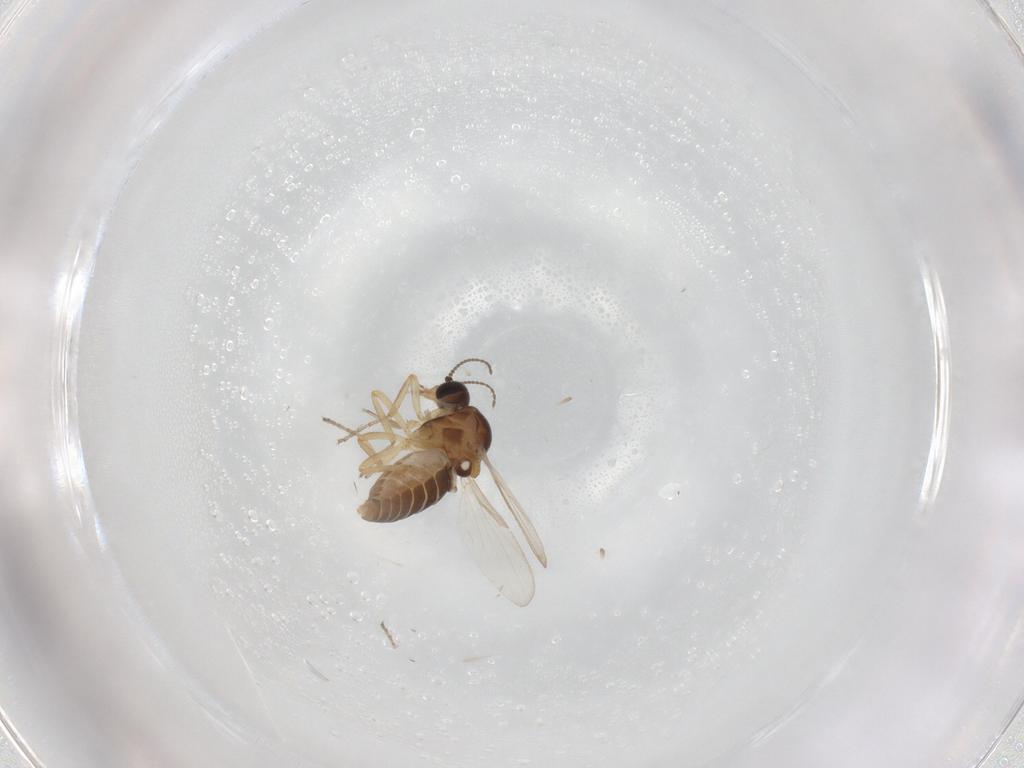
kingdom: Animalia
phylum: Arthropoda
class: Insecta
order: Diptera
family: Ceratopogonidae
